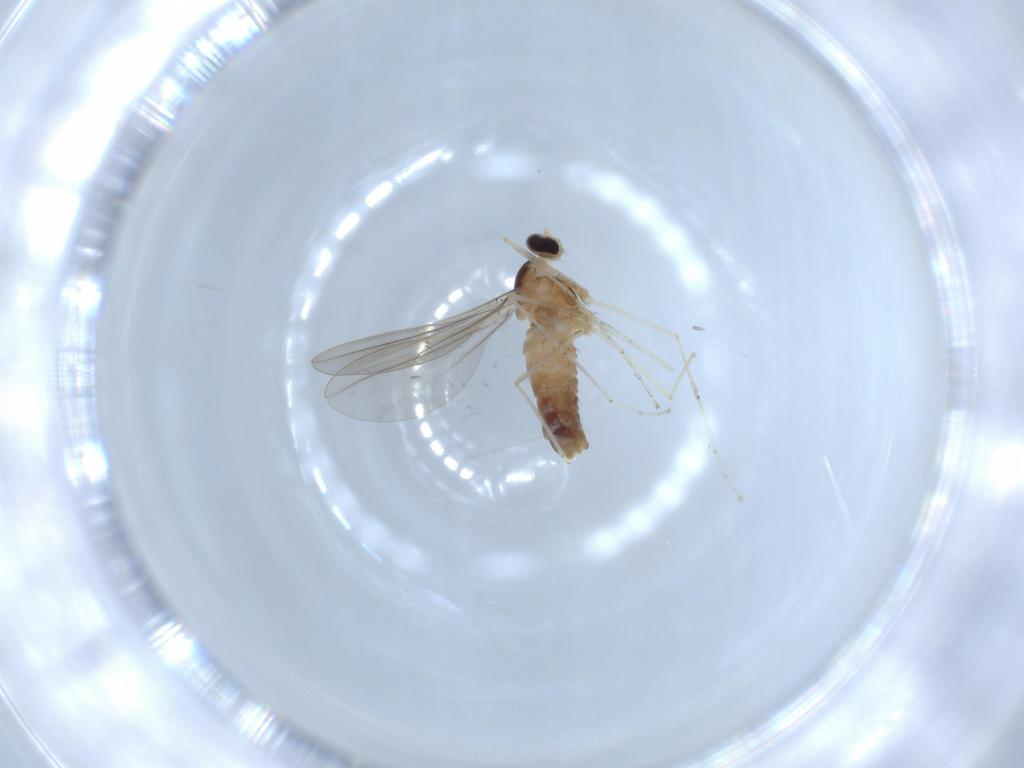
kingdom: Animalia
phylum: Arthropoda
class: Insecta
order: Diptera
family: Cecidomyiidae
